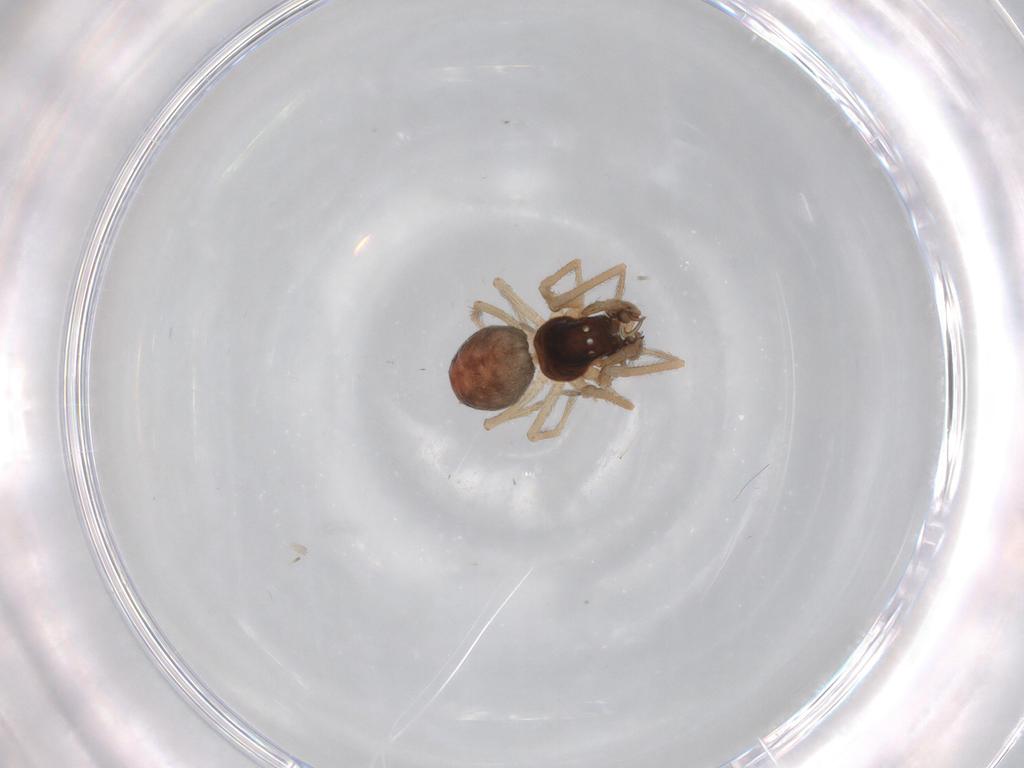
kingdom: Animalia
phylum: Arthropoda
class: Arachnida
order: Araneae
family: Dictynidae
